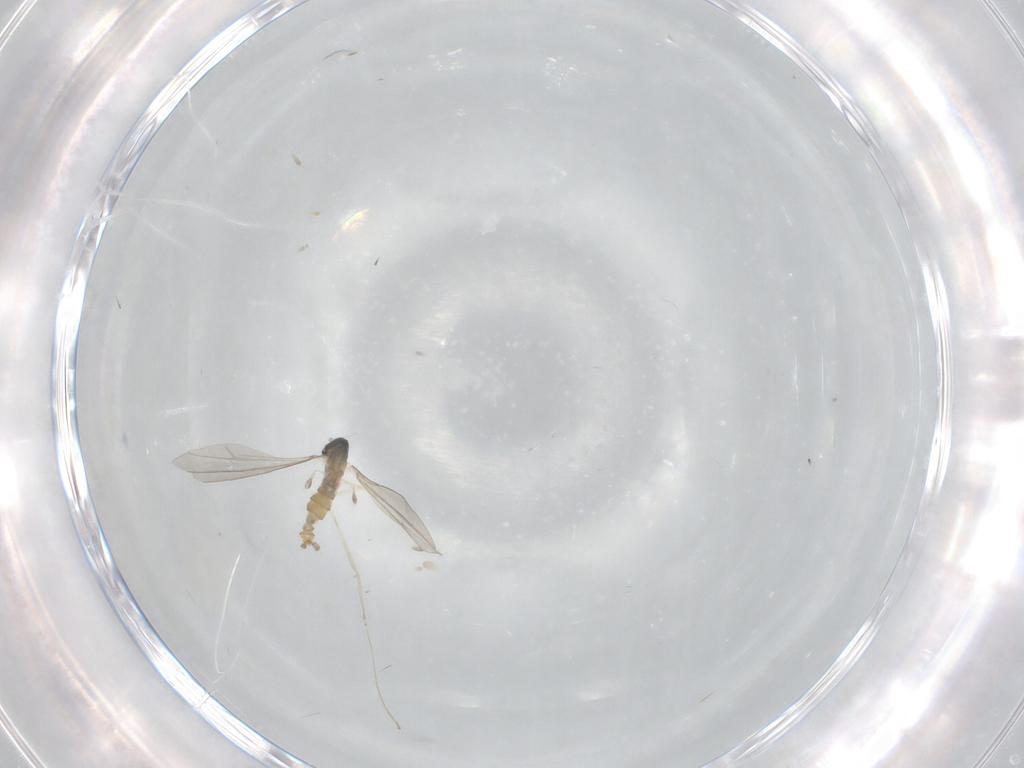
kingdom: Animalia
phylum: Arthropoda
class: Insecta
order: Diptera
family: Cecidomyiidae
